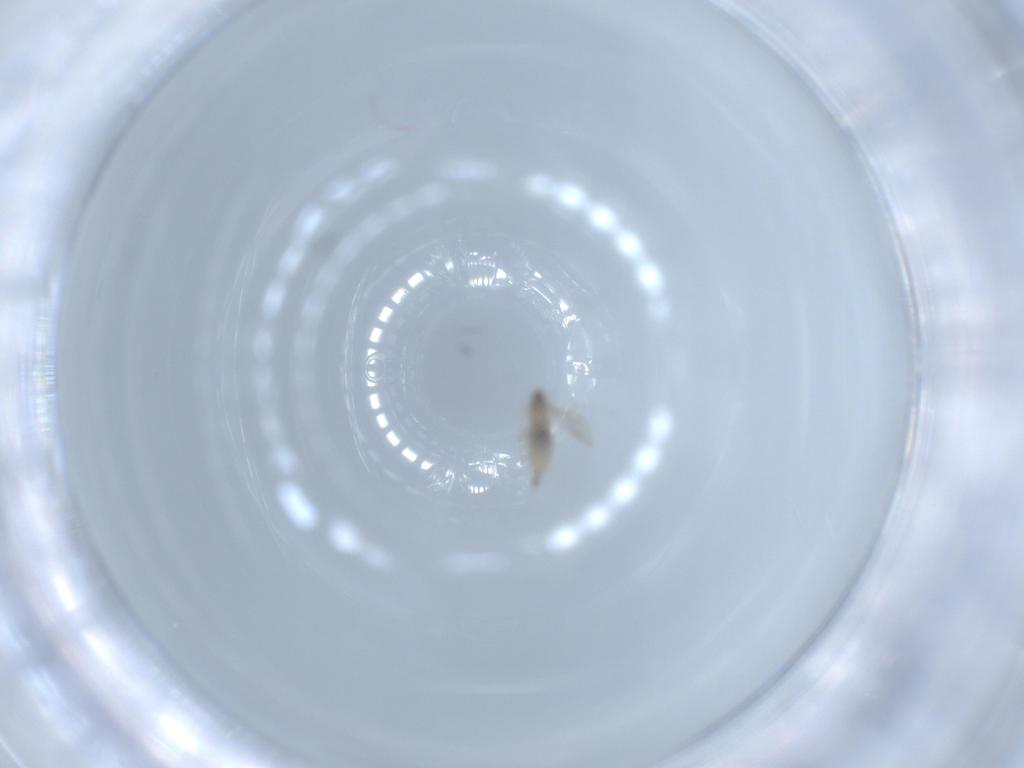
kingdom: Animalia
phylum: Arthropoda
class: Insecta
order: Diptera
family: Cecidomyiidae
